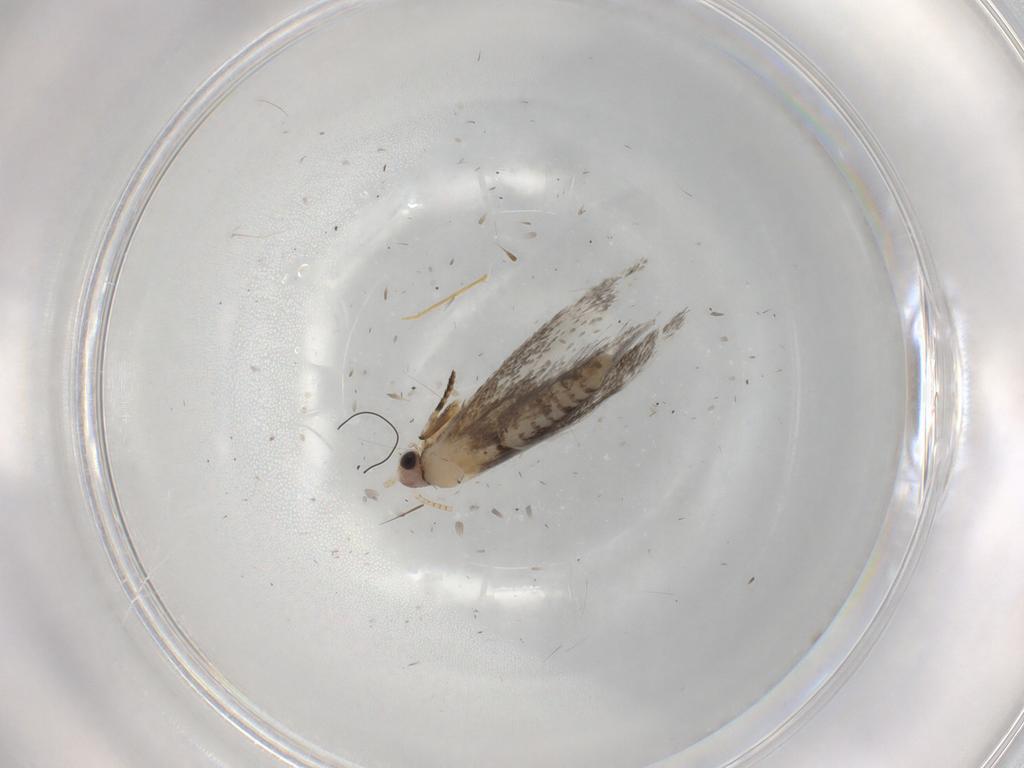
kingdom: Animalia
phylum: Arthropoda
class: Insecta
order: Lepidoptera
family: Tineidae
